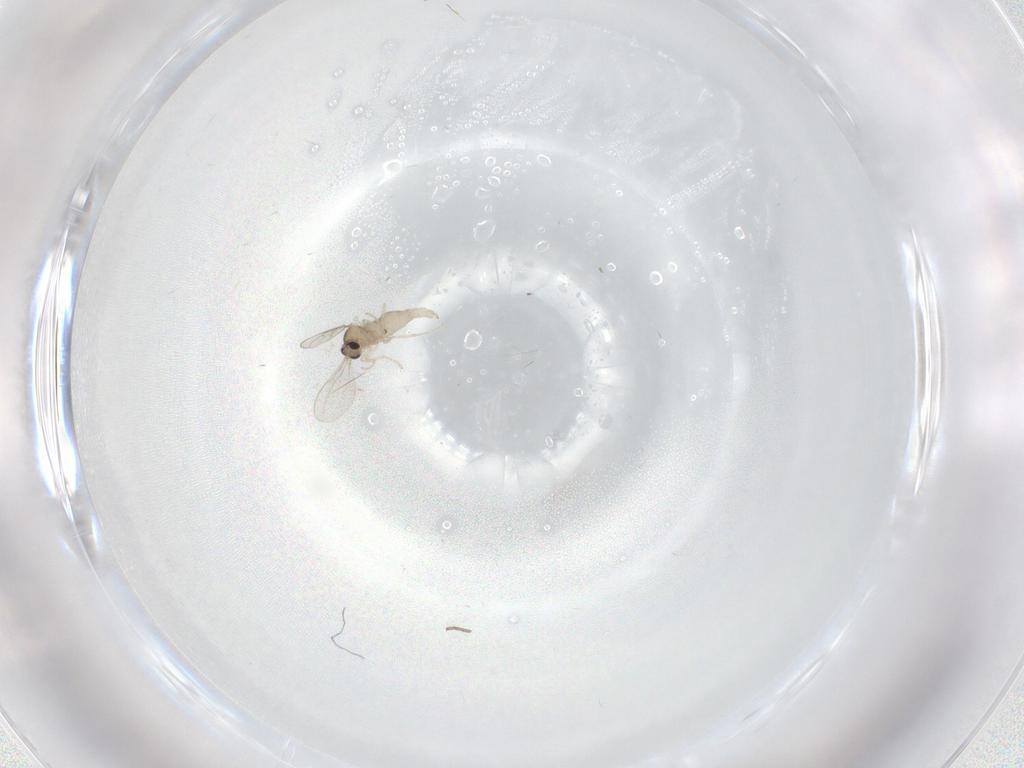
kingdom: Animalia
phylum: Arthropoda
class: Insecta
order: Diptera
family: Cecidomyiidae
